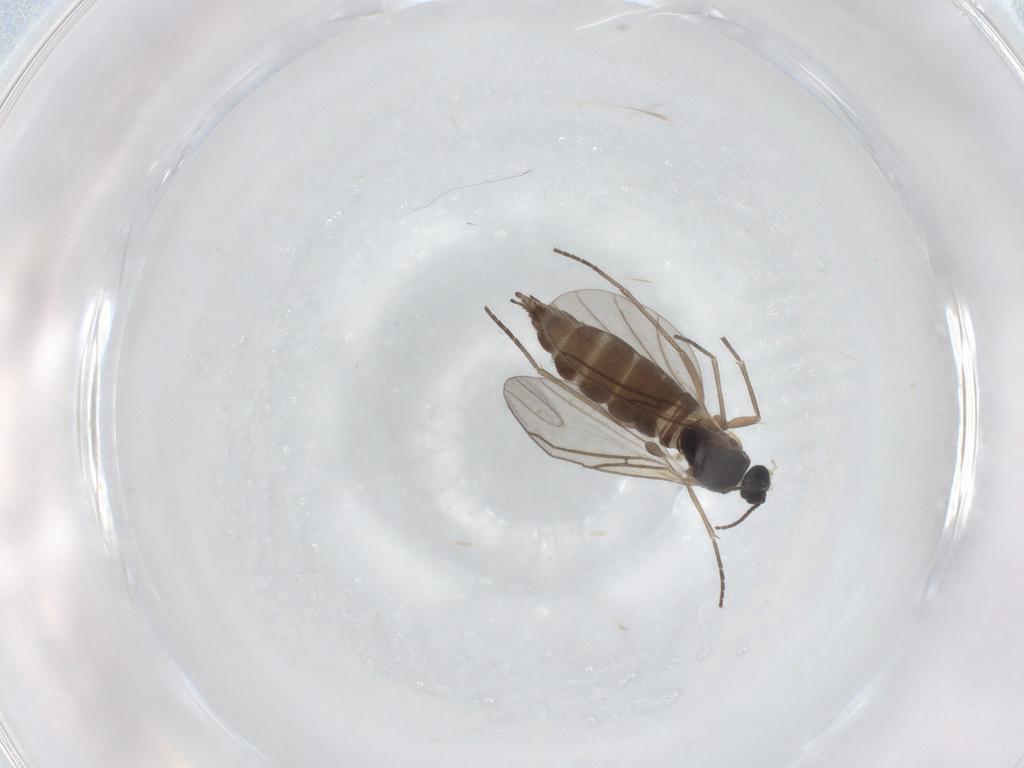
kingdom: Animalia
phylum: Arthropoda
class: Insecta
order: Diptera
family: Sciaridae
